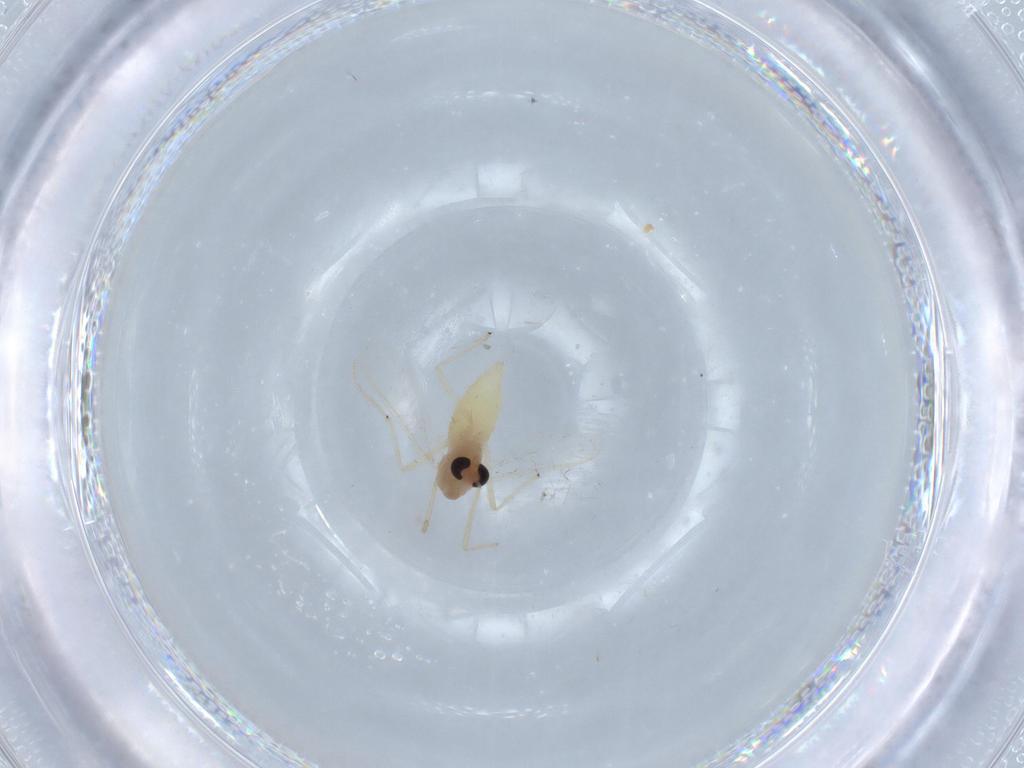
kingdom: Animalia
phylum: Arthropoda
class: Insecta
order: Diptera
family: Chironomidae
